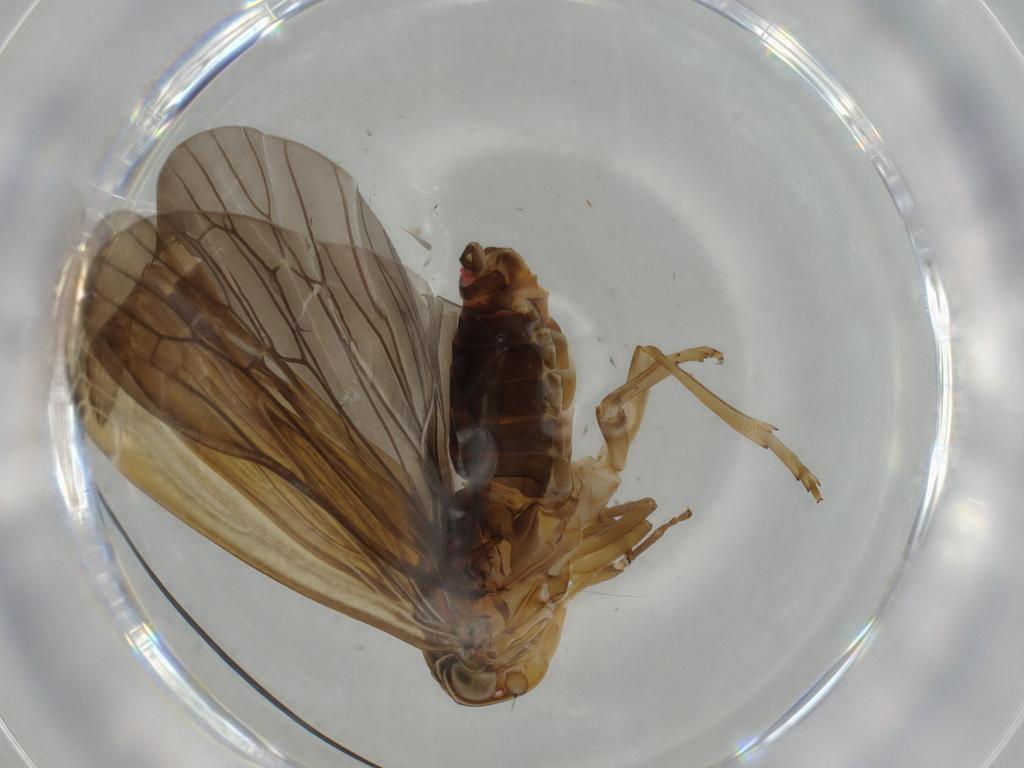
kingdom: Animalia
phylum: Arthropoda
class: Insecta
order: Hemiptera
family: Achilidae
